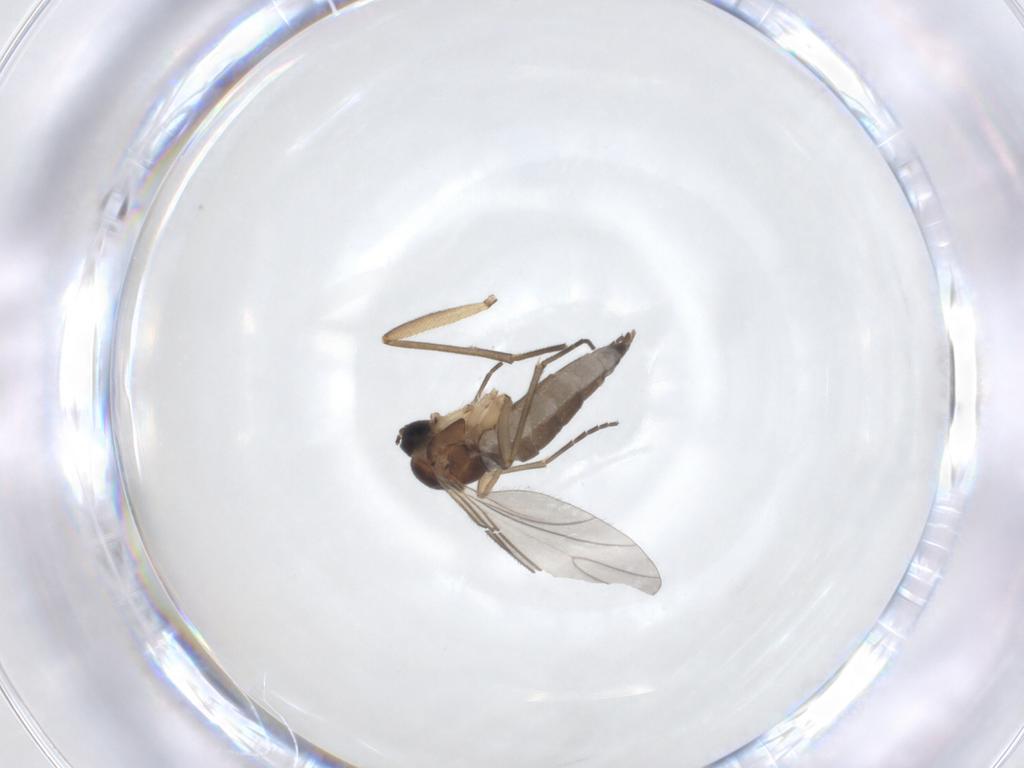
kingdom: Animalia
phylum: Arthropoda
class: Insecta
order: Diptera
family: Sciaridae
